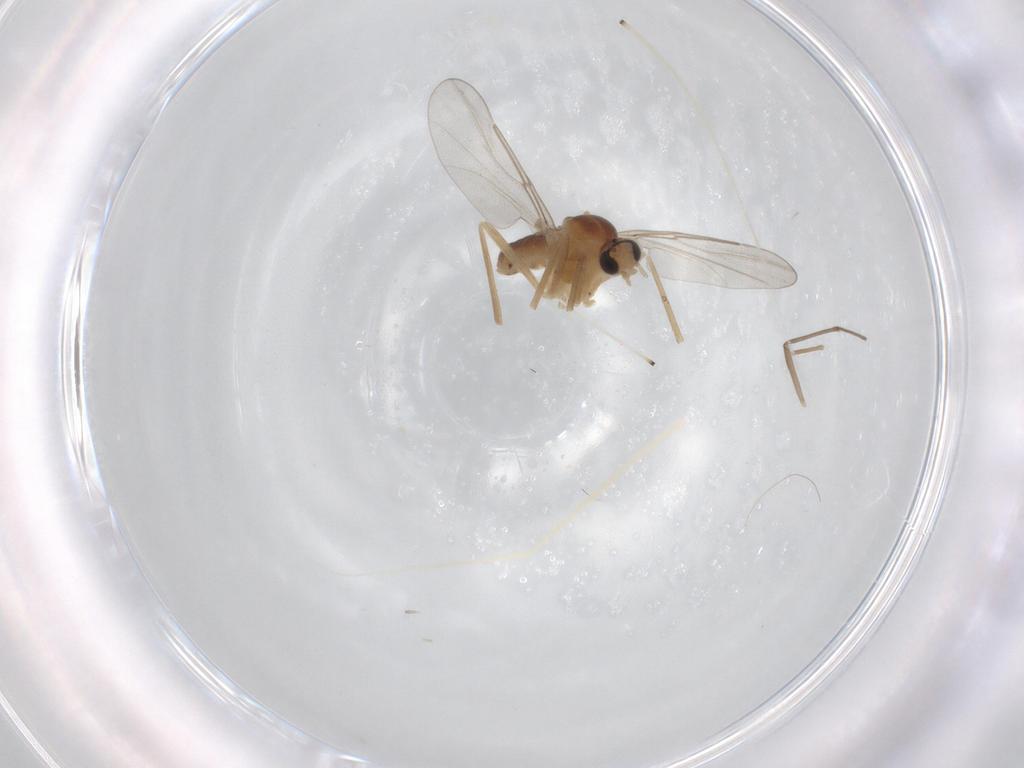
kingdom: Animalia
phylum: Arthropoda
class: Insecta
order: Diptera
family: Cecidomyiidae
